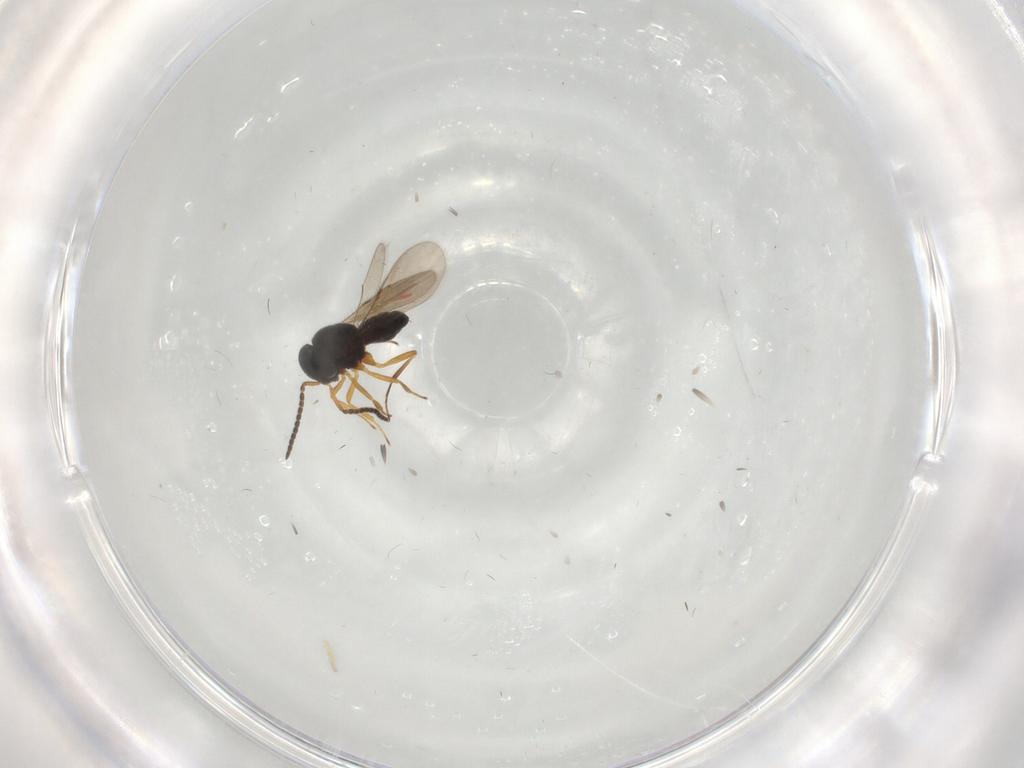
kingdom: Animalia
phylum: Arthropoda
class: Insecta
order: Hymenoptera
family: Scelionidae
